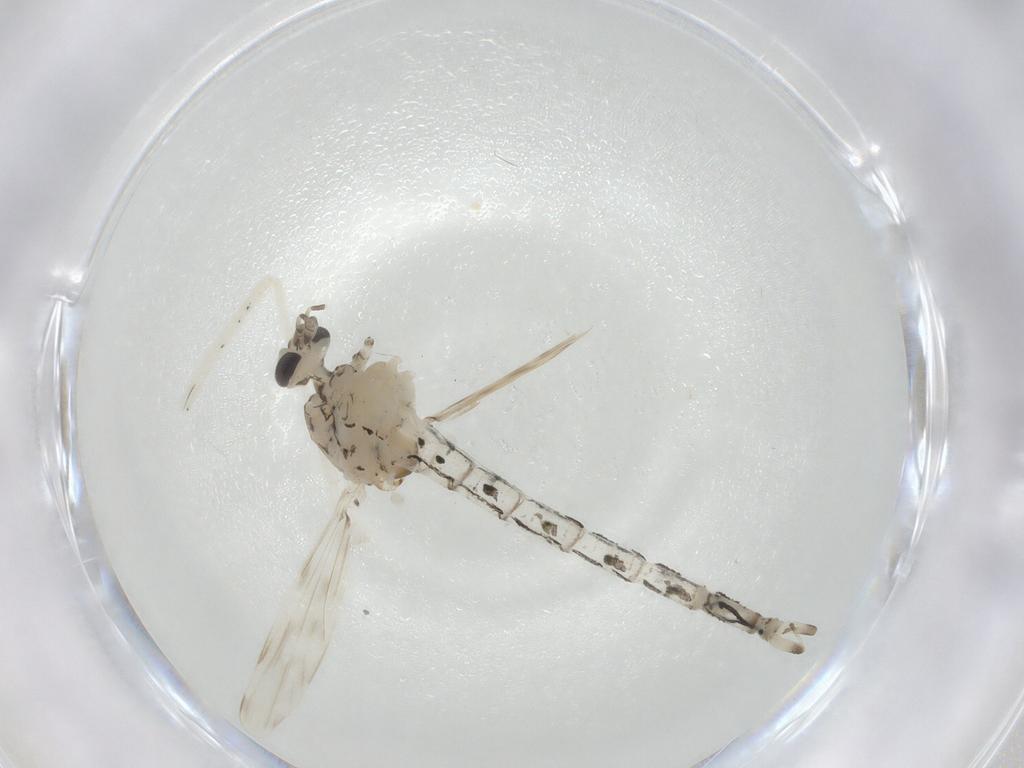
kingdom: Animalia
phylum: Arthropoda
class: Insecta
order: Diptera
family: Chaoboridae
